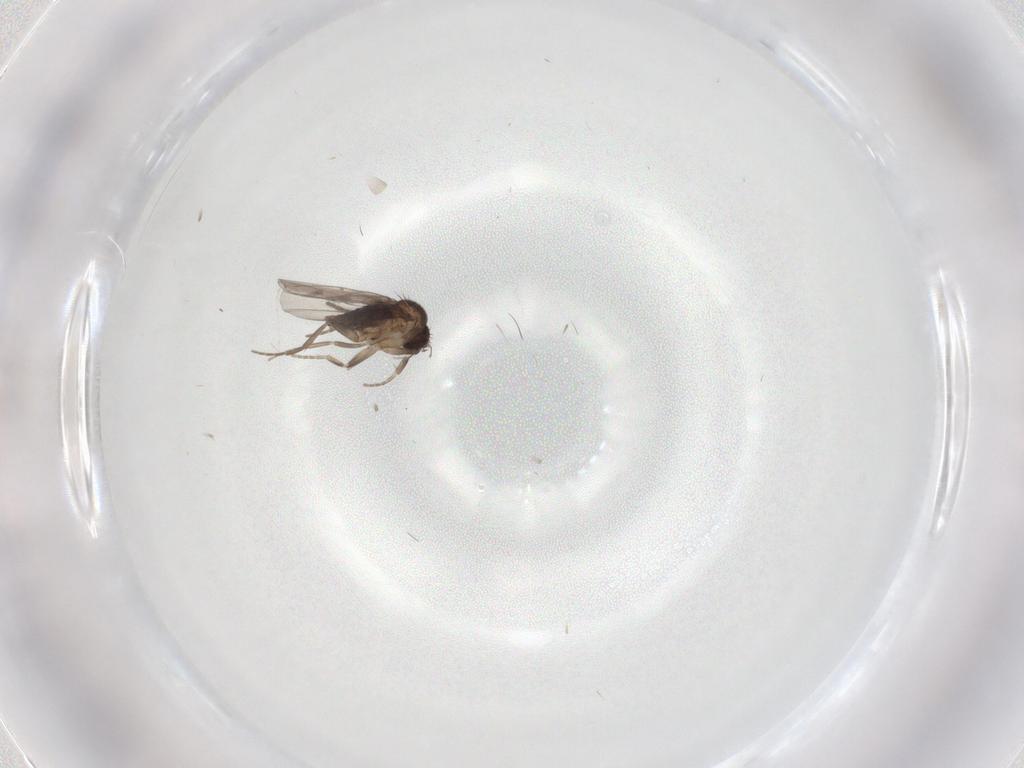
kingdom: Animalia
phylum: Arthropoda
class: Insecta
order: Diptera
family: Phoridae
